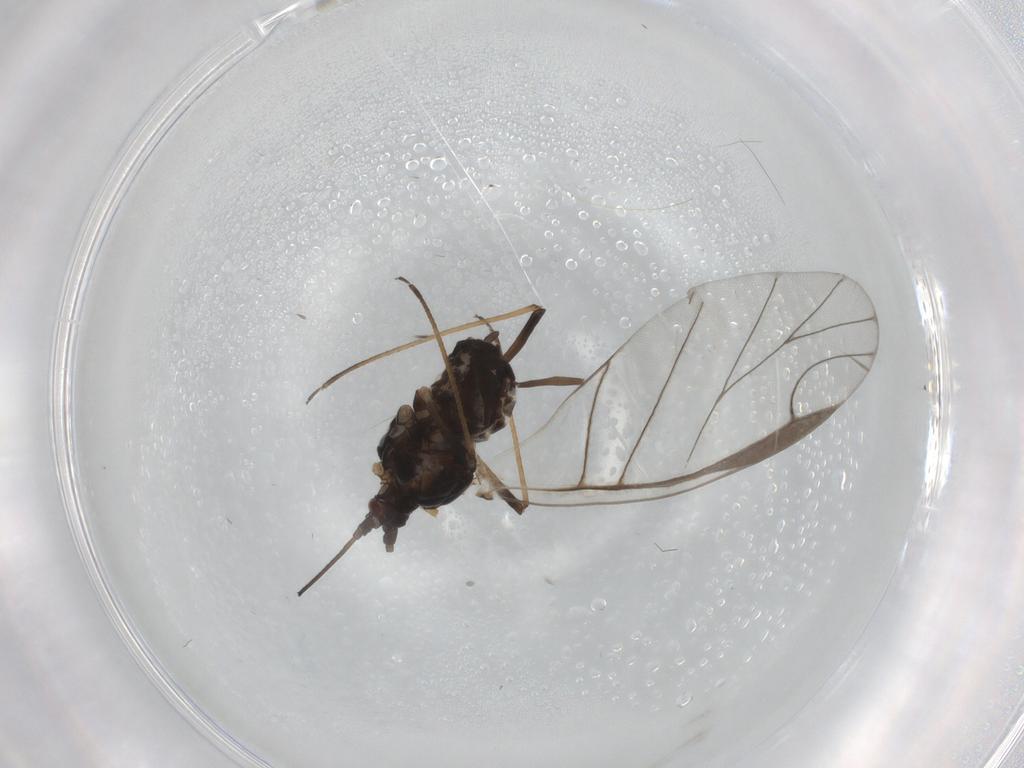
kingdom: Animalia
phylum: Arthropoda
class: Insecta
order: Hemiptera
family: Aphididae
